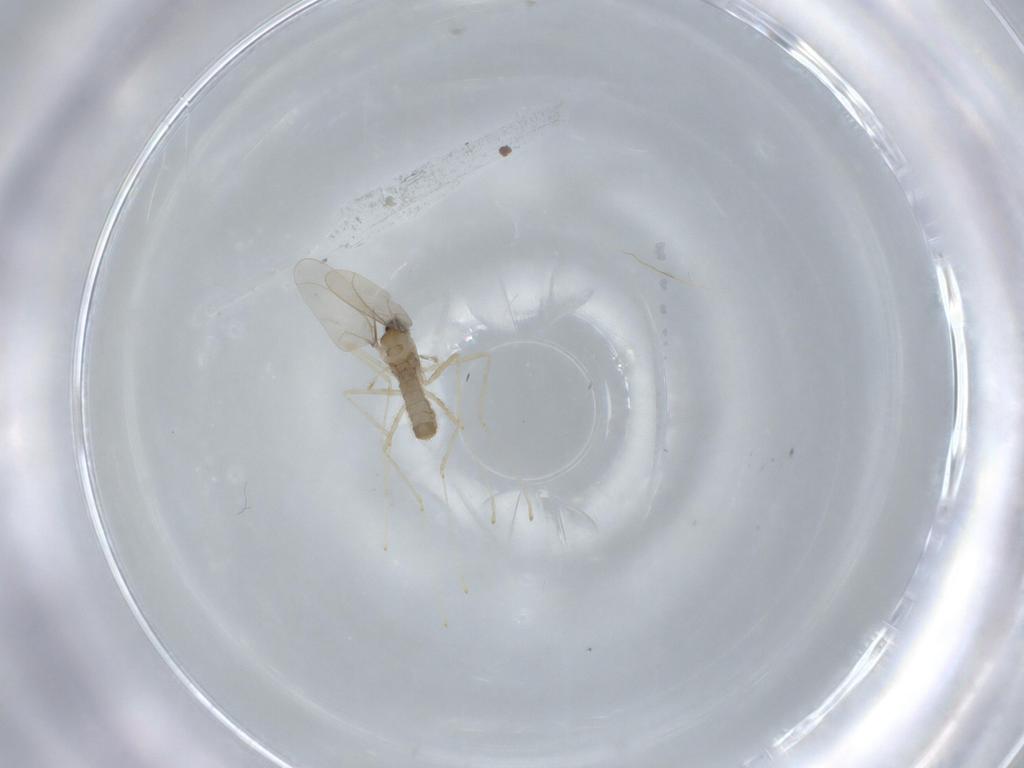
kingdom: Animalia
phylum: Arthropoda
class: Insecta
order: Diptera
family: Cecidomyiidae
